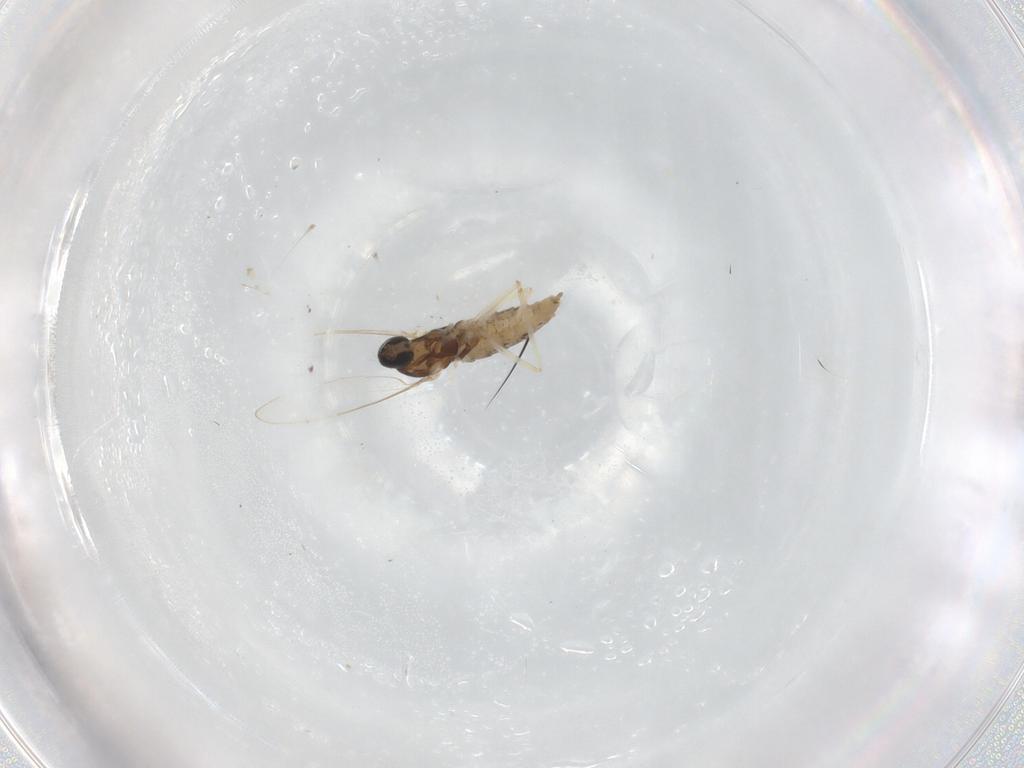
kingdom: Animalia
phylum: Arthropoda
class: Insecta
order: Diptera
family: Cecidomyiidae
